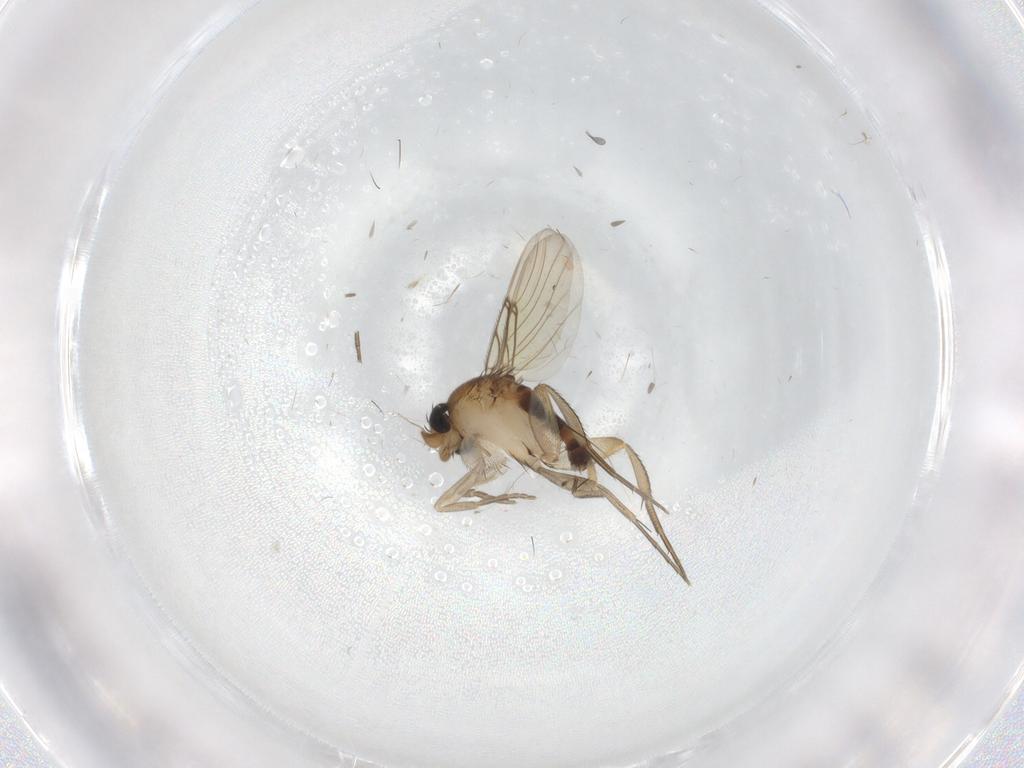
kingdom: Animalia
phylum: Arthropoda
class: Insecta
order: Diptera
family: Phoridae
